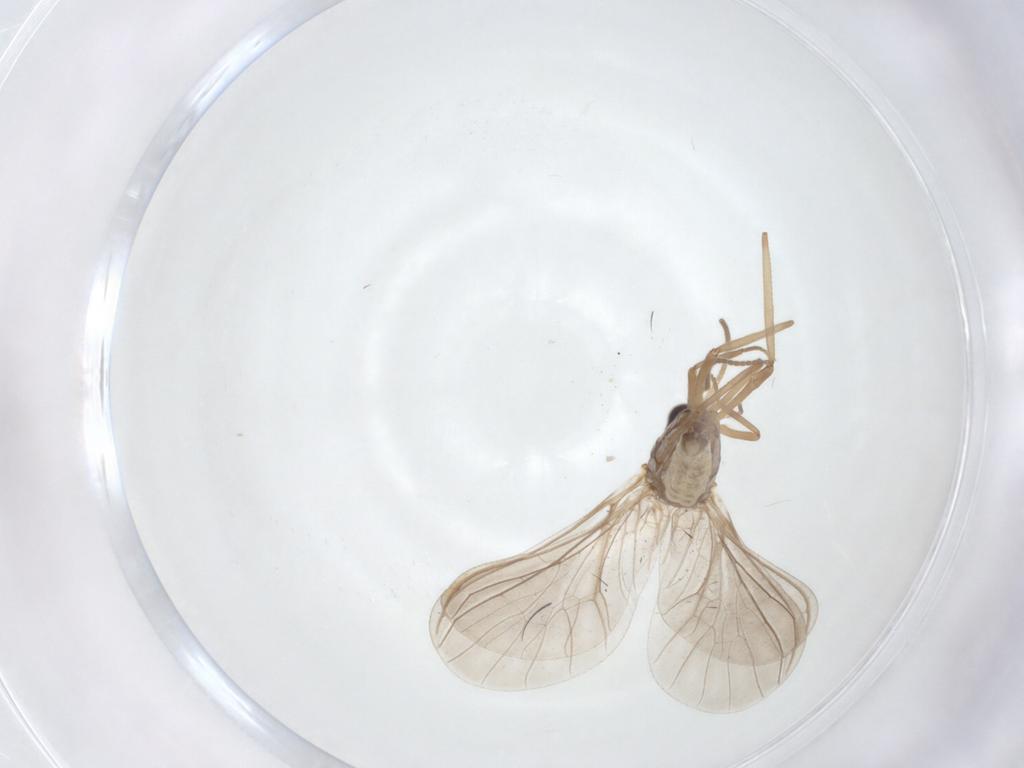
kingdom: Animalia
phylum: Arthropoda
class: Insecta
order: Neuroptera
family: Coniopterygidae
